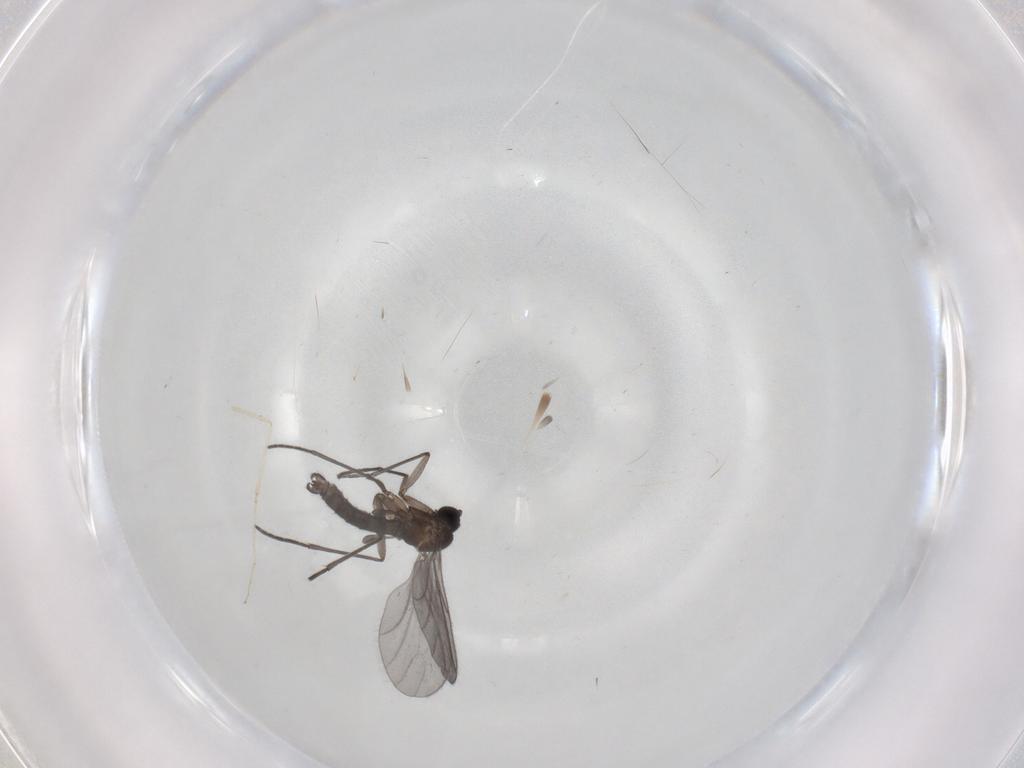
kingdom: Animalia
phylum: Arthropoda
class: Insecta
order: Diptera
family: Sciaridae
